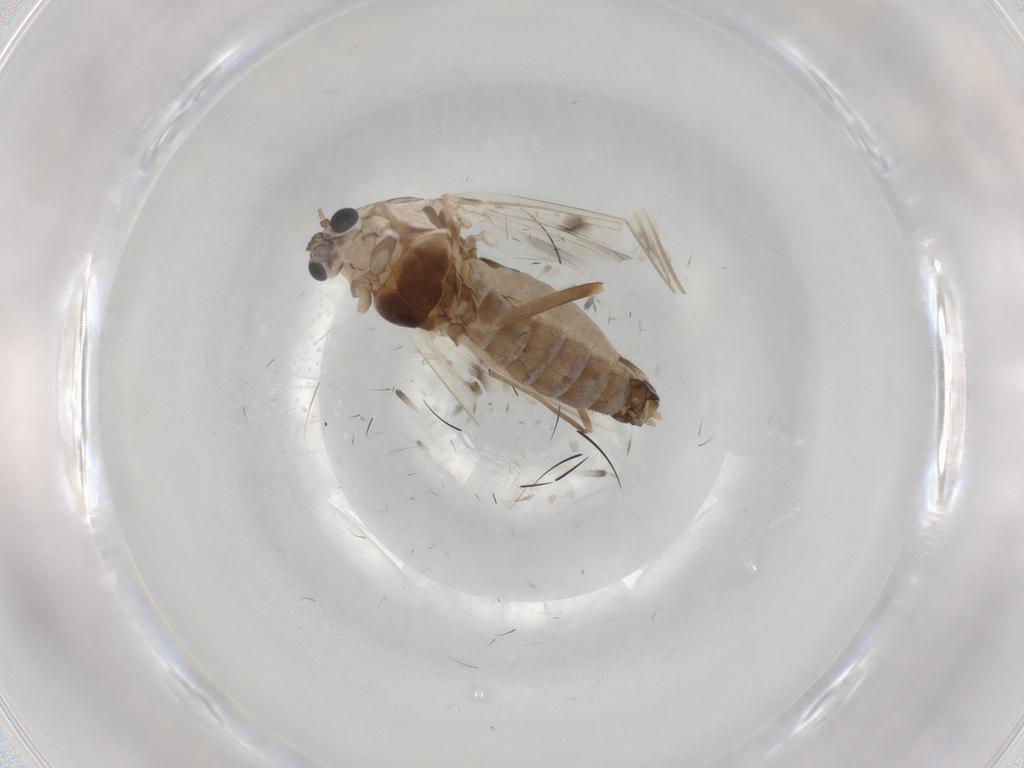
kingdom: Animalia
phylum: Arthropoda
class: Insecta
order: Diptera
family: Chironomidae
